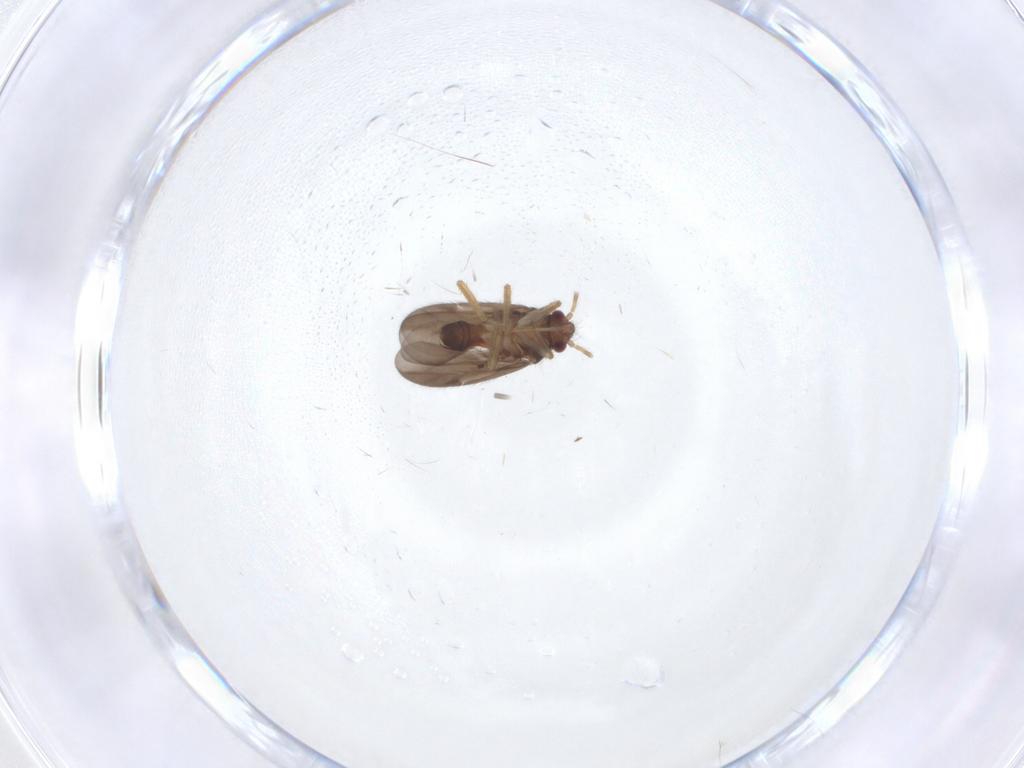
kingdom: Animalia
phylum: Arthropoda
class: Insecta
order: Hemiptera
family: Ceratocombidae
